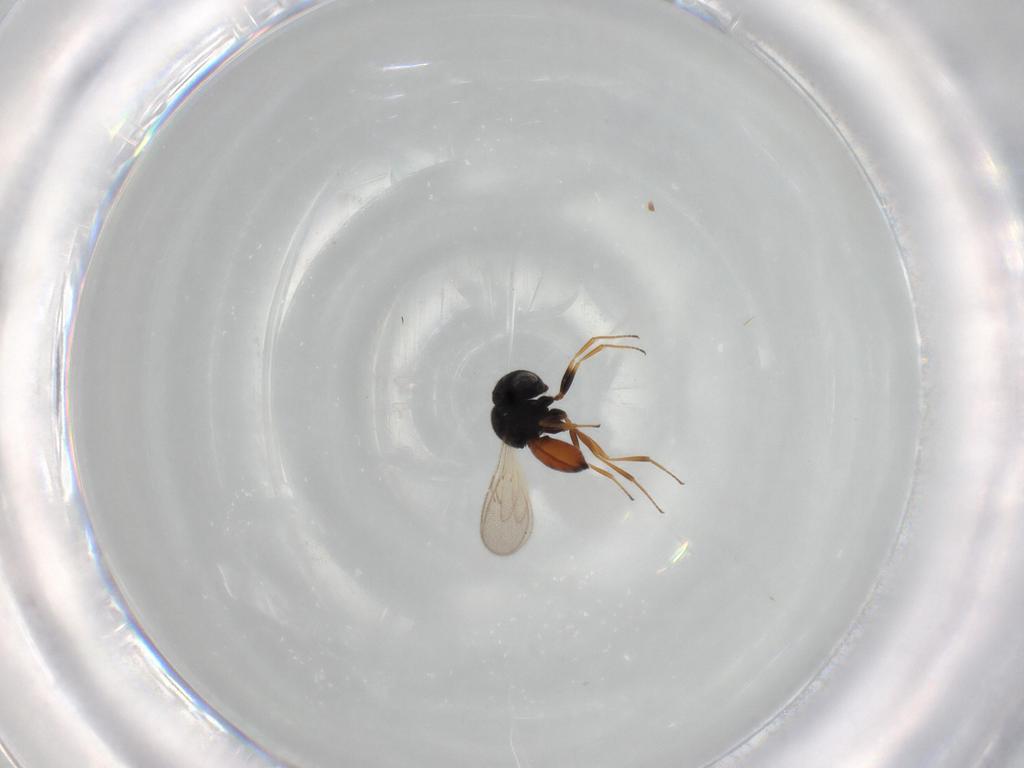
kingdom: Animalia
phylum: Arthropoda
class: Insecta
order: Hymenoptera
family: Scelionidae
